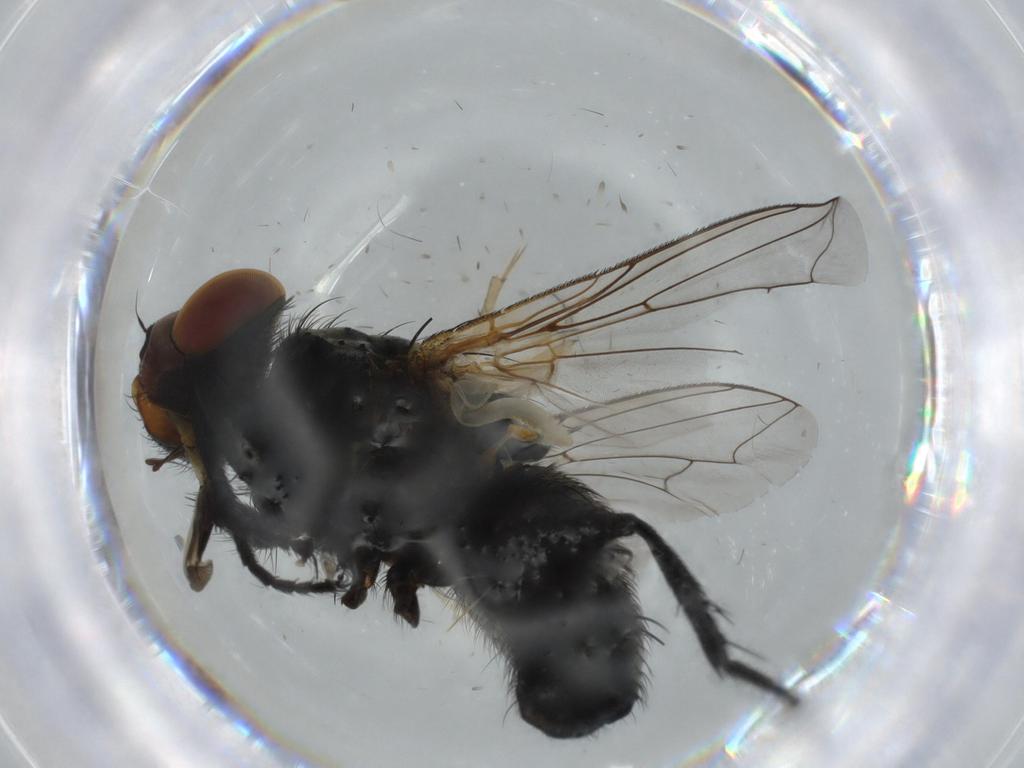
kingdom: Animalia
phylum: Arthropoda
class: Insecta
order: Diptera
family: Sarcophagidae
